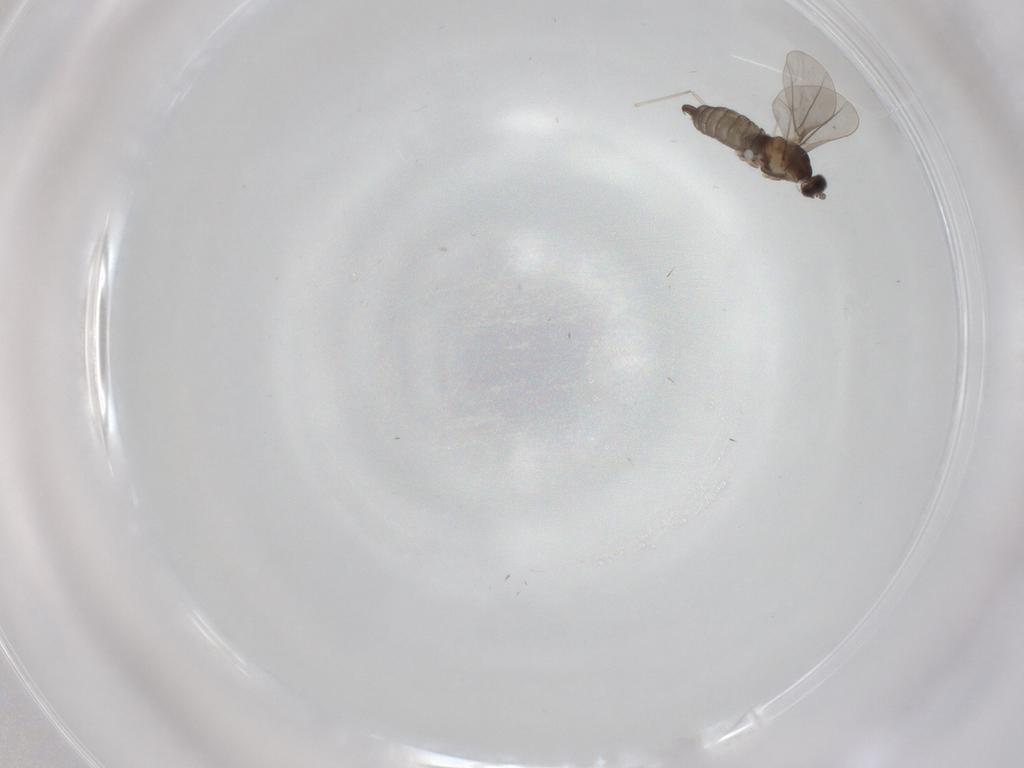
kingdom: Animalia
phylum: Arthropoda
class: Insecta
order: Diptera
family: Cecidomyiidae
